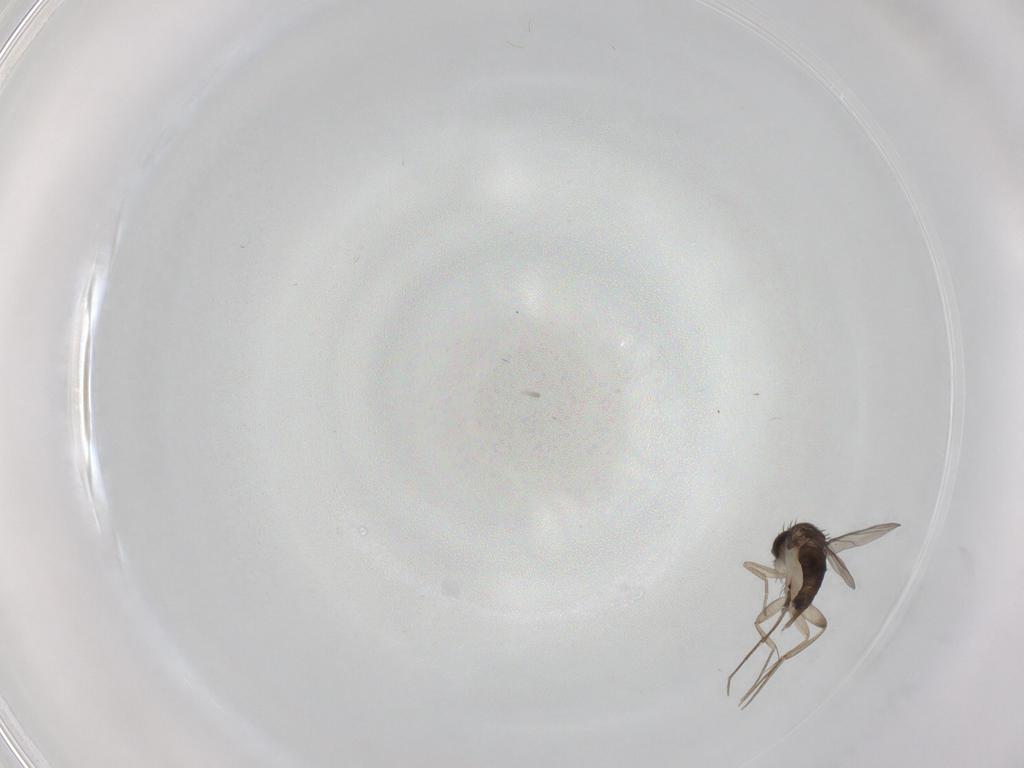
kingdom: Animalia
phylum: Arthropoda
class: Insecta
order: Diptera
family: Phoridae
